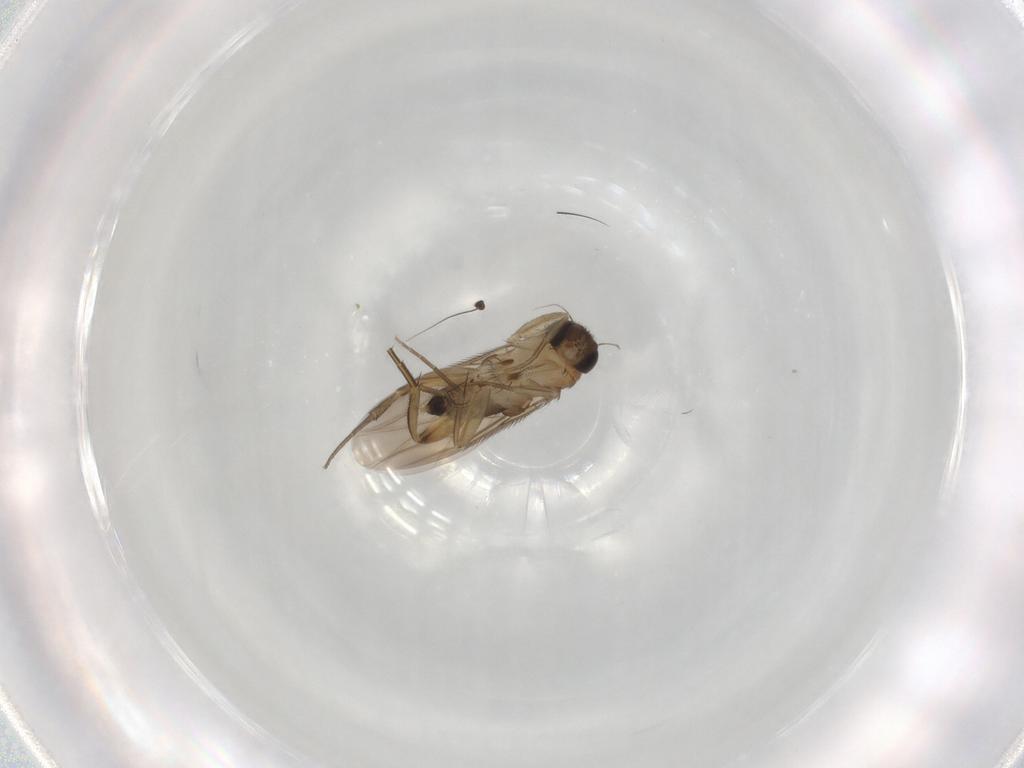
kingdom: Animalia
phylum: Arthropoda
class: Insecta
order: Diptera
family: Phoridae
